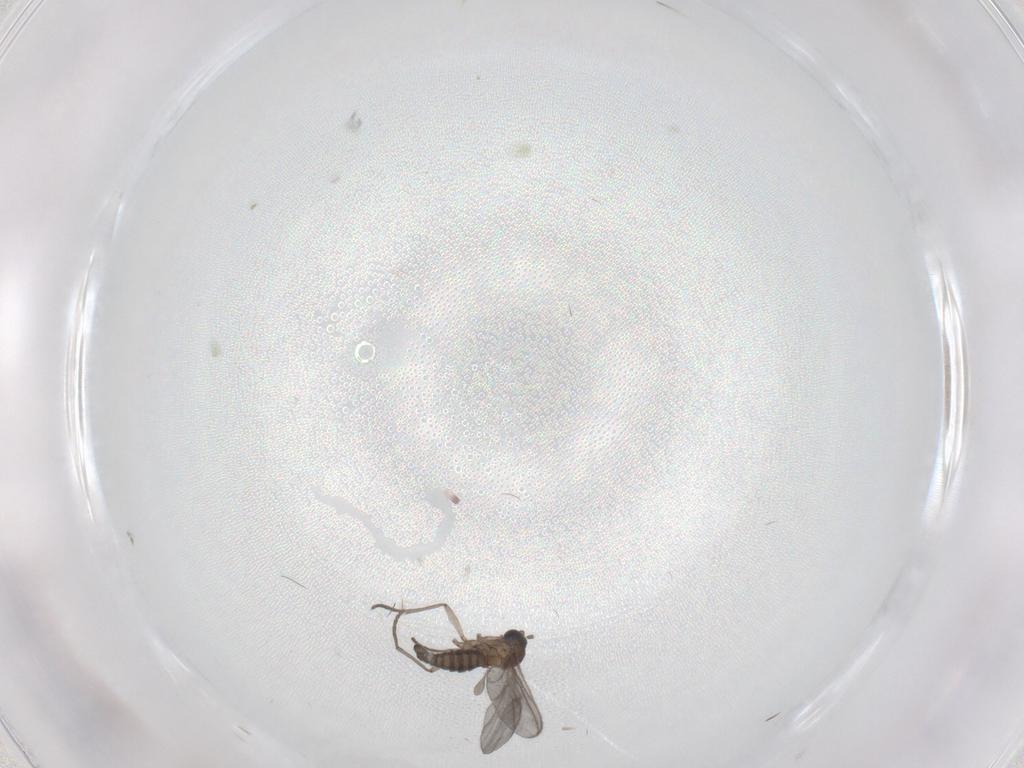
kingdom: Animalia
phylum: Arthropoda
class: Insecta
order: Diptera
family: Sciaridae
